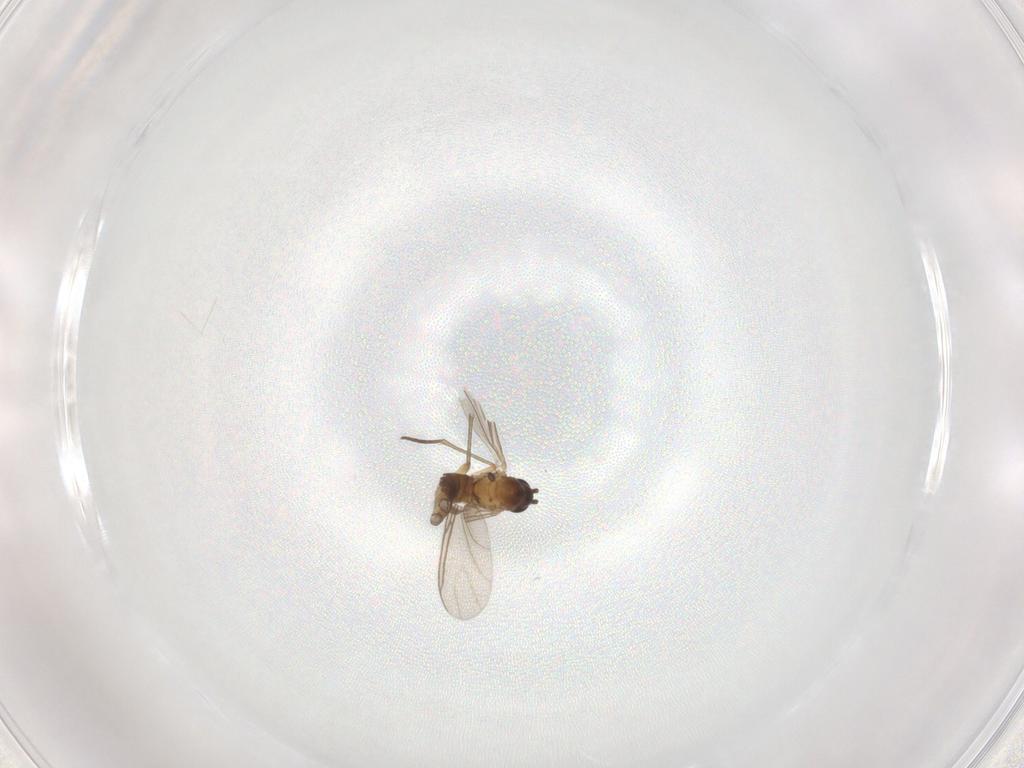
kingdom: Animalia
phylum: Arthropoda
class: Insecta
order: Diptera
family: Sciaridae
